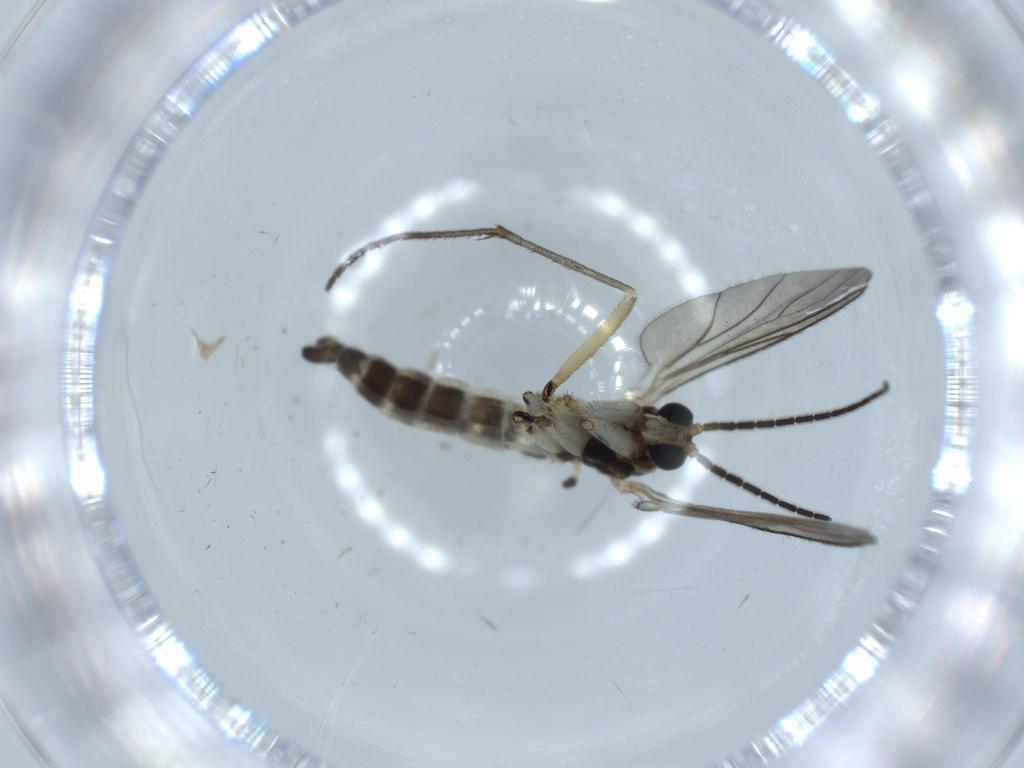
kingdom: Animalia
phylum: Arthropoda
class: Insecta
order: Diptera
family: Sciaridae
